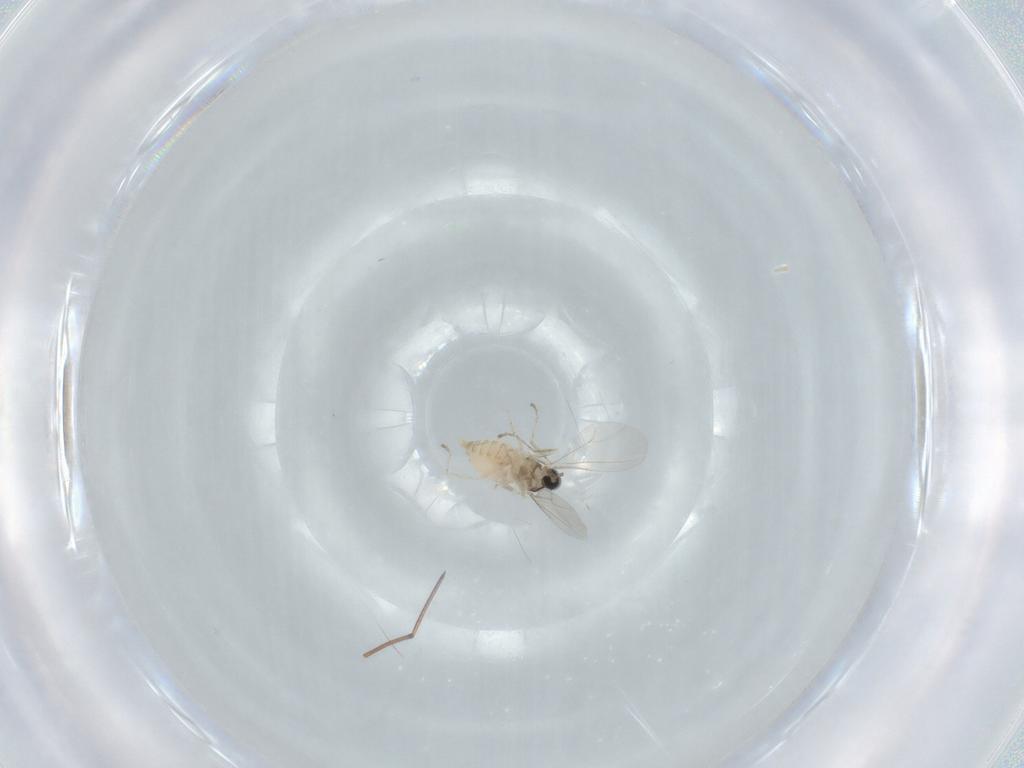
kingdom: Animalia
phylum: Arthropoda
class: Insecta
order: Diptera
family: Cecidomyiidae
